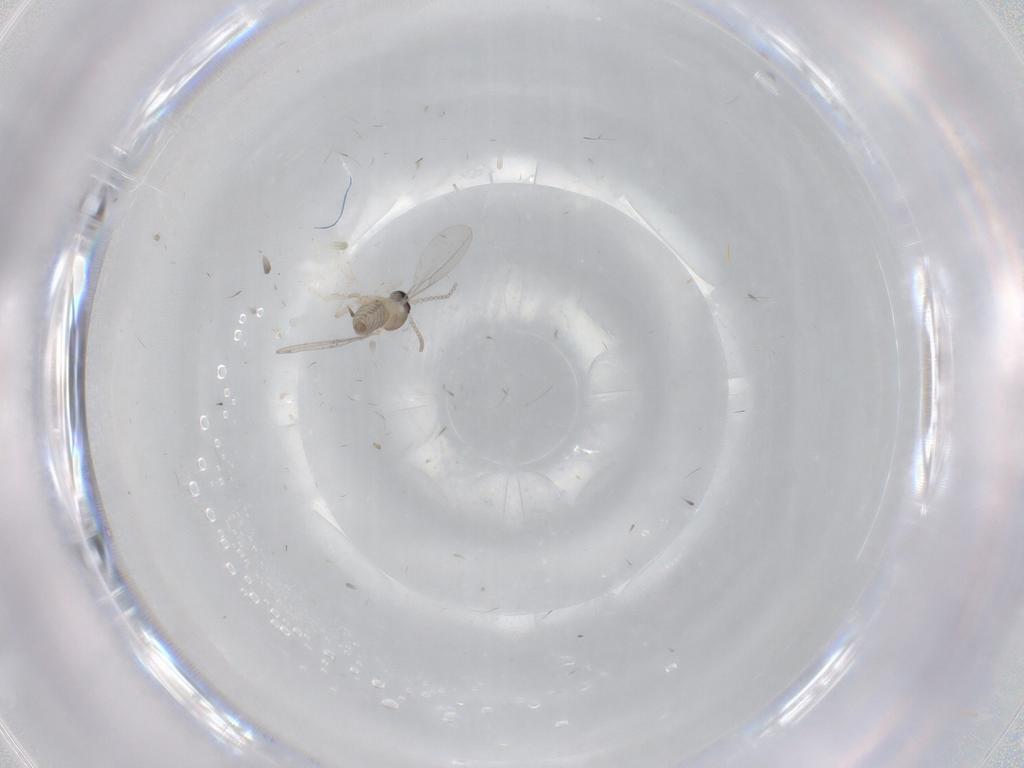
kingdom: Animalia
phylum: Arthropoda
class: Insecta
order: Diptera
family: Cecidomyiidae
